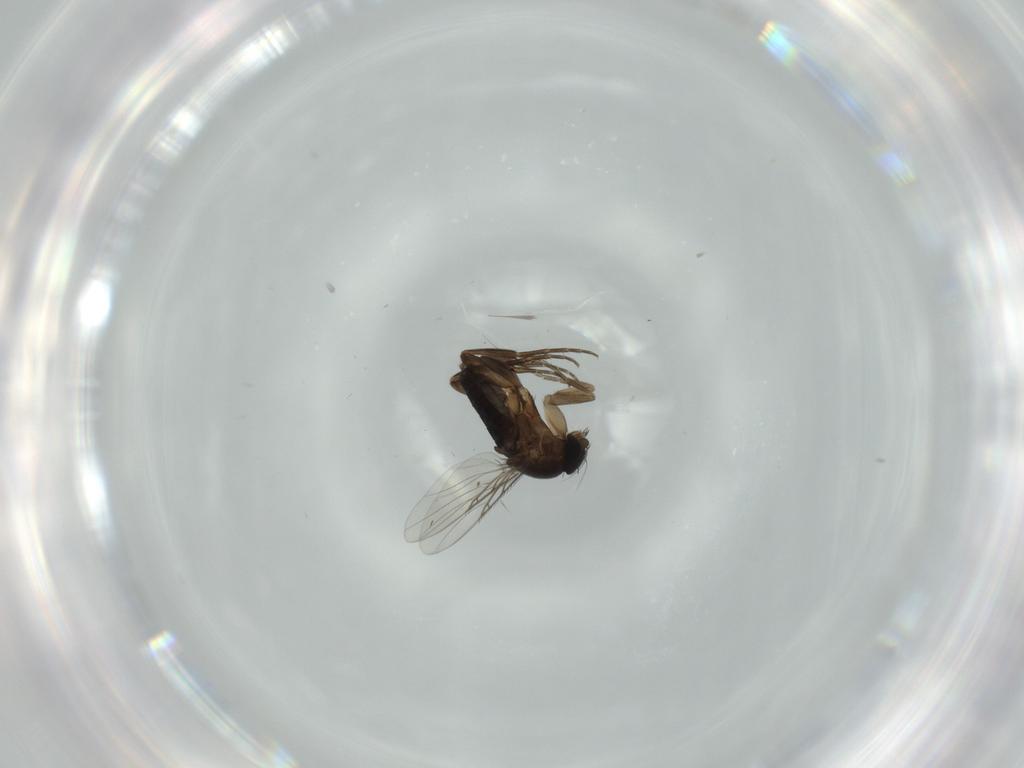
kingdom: Animalia
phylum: Arthropoda
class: Insecta
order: Diptera
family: Phoridae
